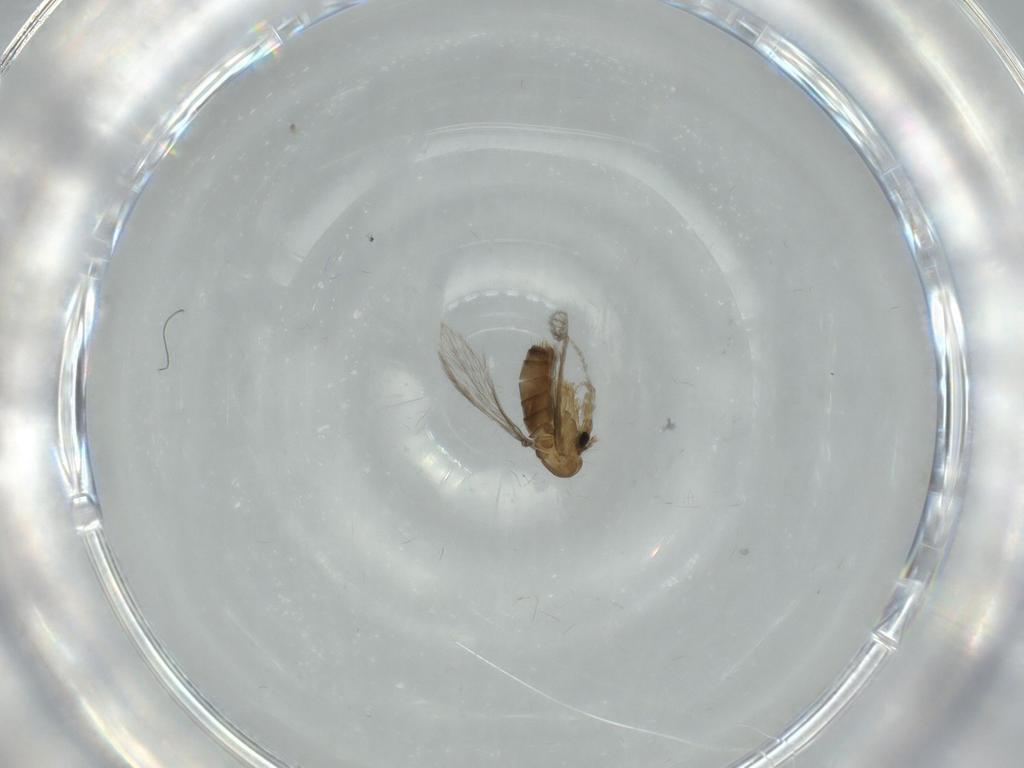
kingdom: Animalia
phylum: Arthropoda
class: Insecta
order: Diptera
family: Psychodidae
